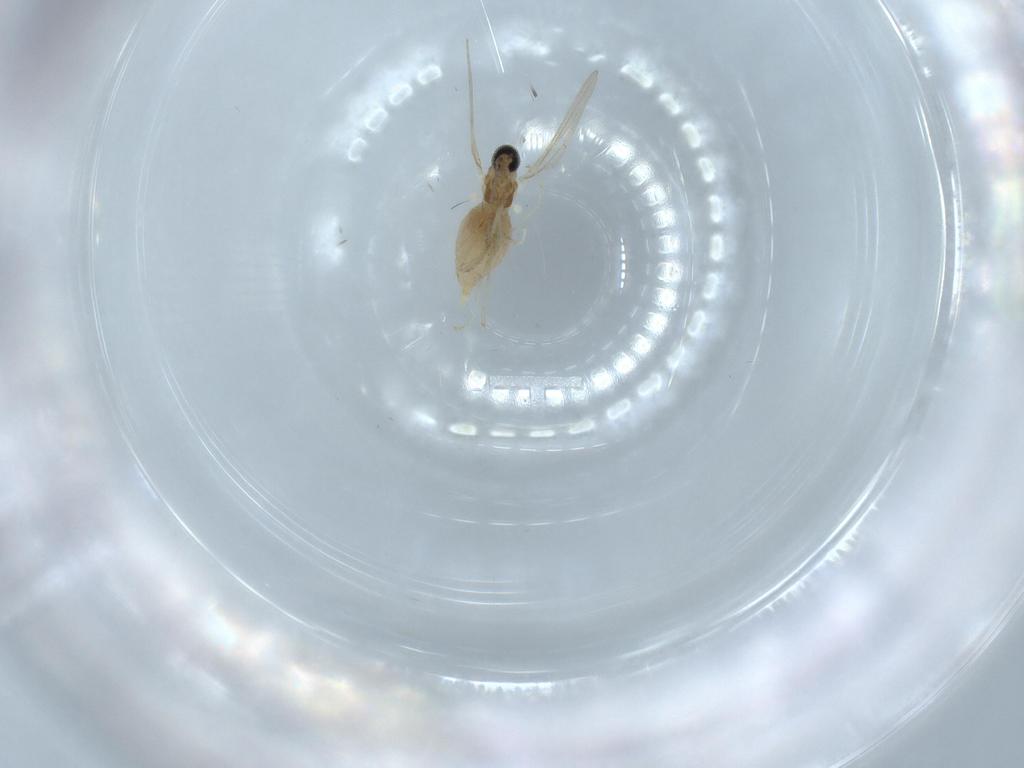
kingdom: Animalia
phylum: Arthropoda
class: Insecta
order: Diptera
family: Cecidomyiidae
